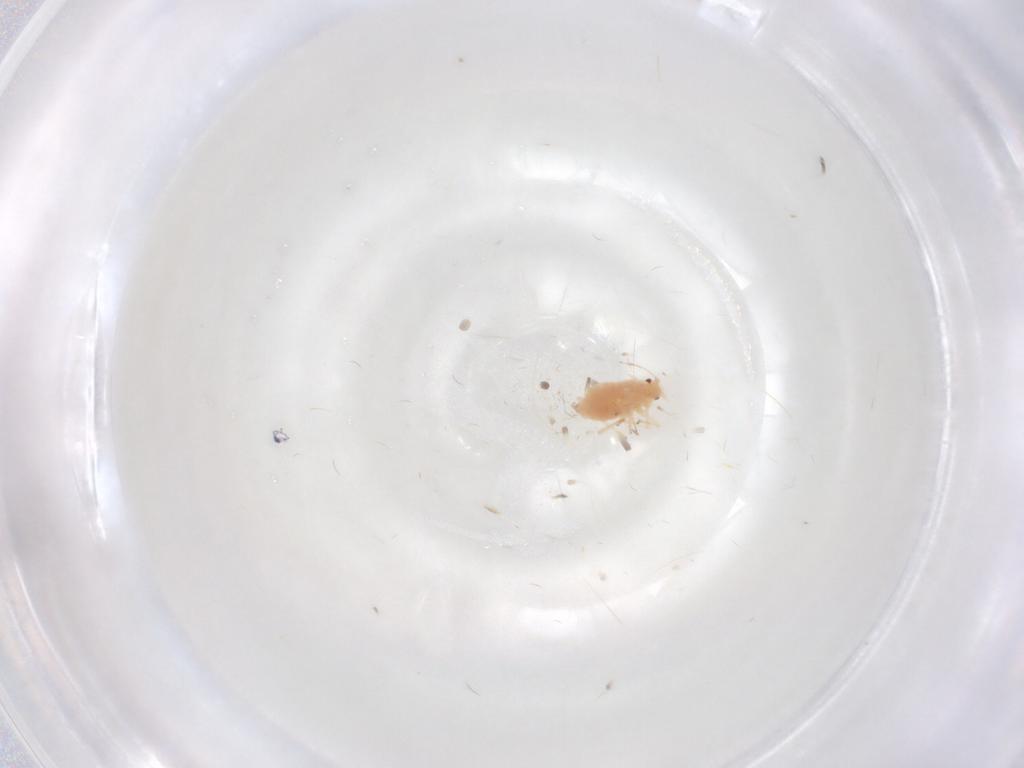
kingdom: Animalia
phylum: Arthropoda
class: Insecta
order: Hemiptera
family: Aphididae
